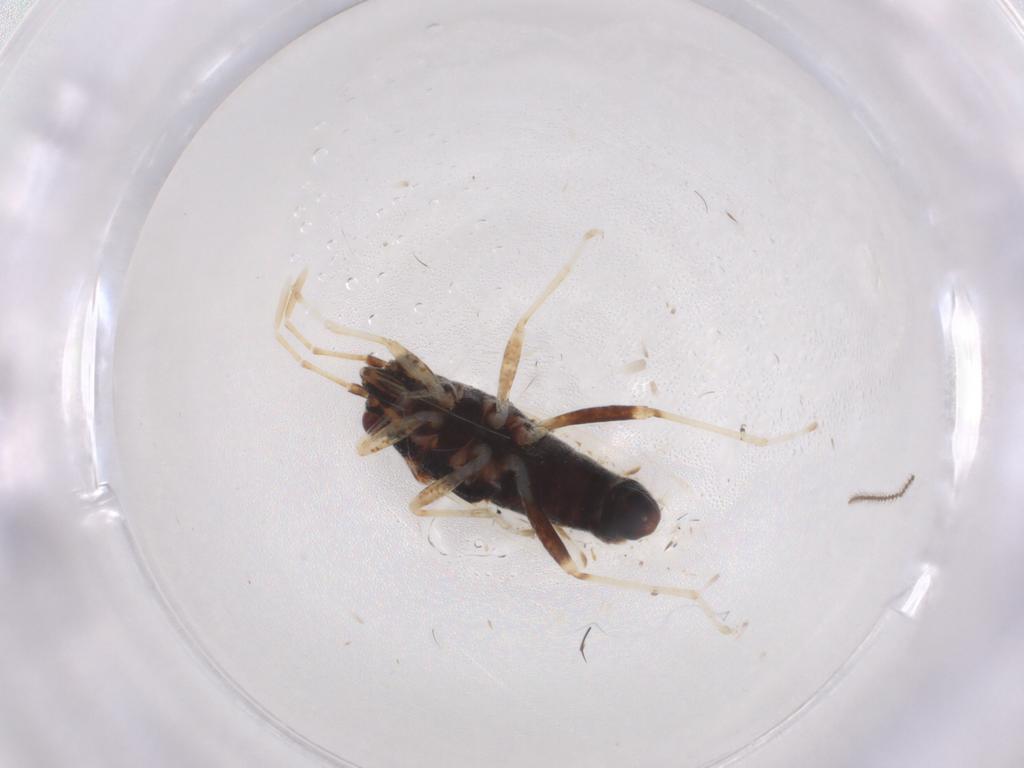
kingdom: Animalia
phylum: Arthropoda
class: Insecta
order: Hemiptera
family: Lygaeidae
